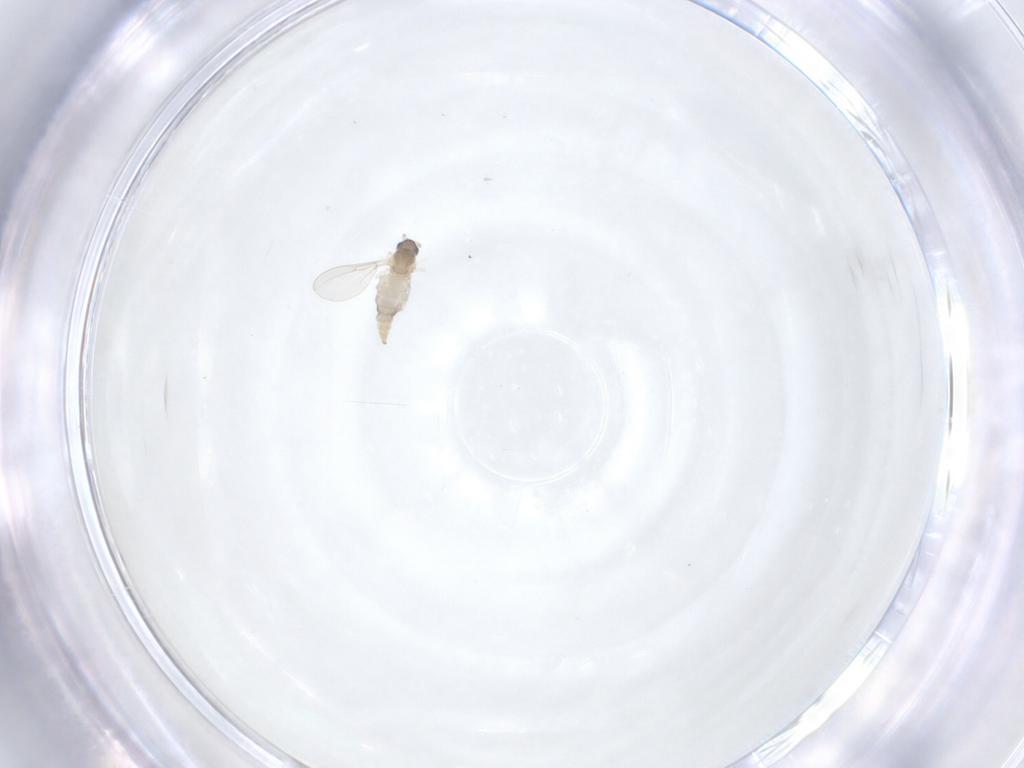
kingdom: Animalia
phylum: Arthropoda
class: Insecta
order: Diptera
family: Cecidomyiidae
